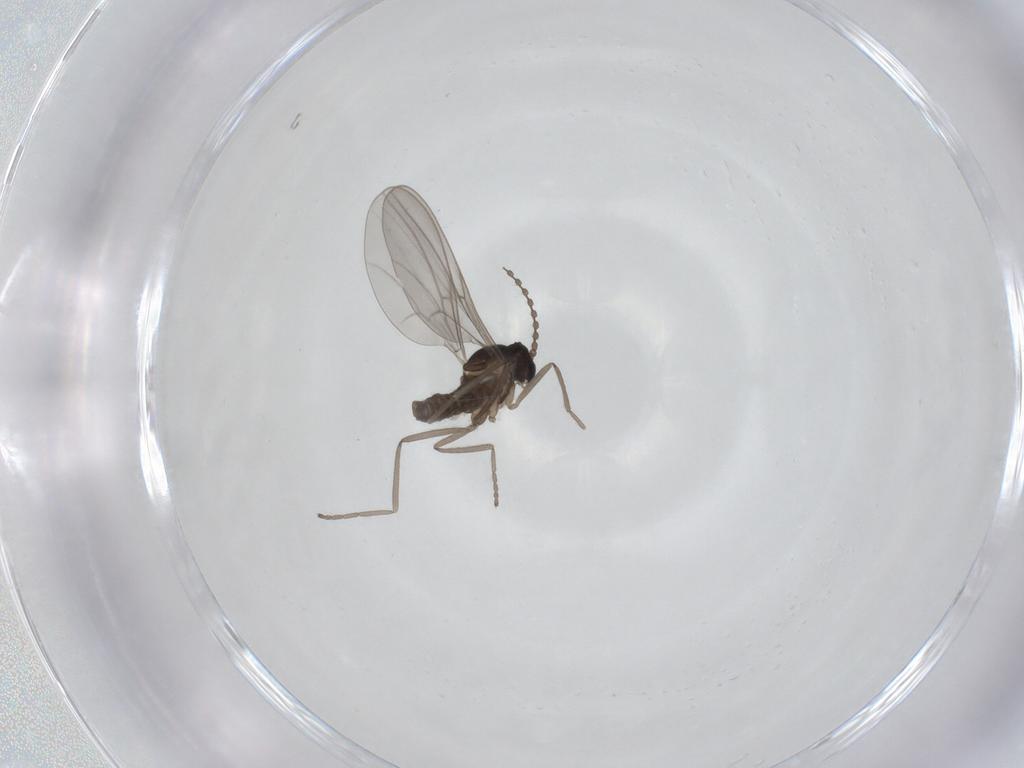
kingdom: Animalia
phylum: Arthropoda
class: Insecta
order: Diptera
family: Cecidomyiidae
